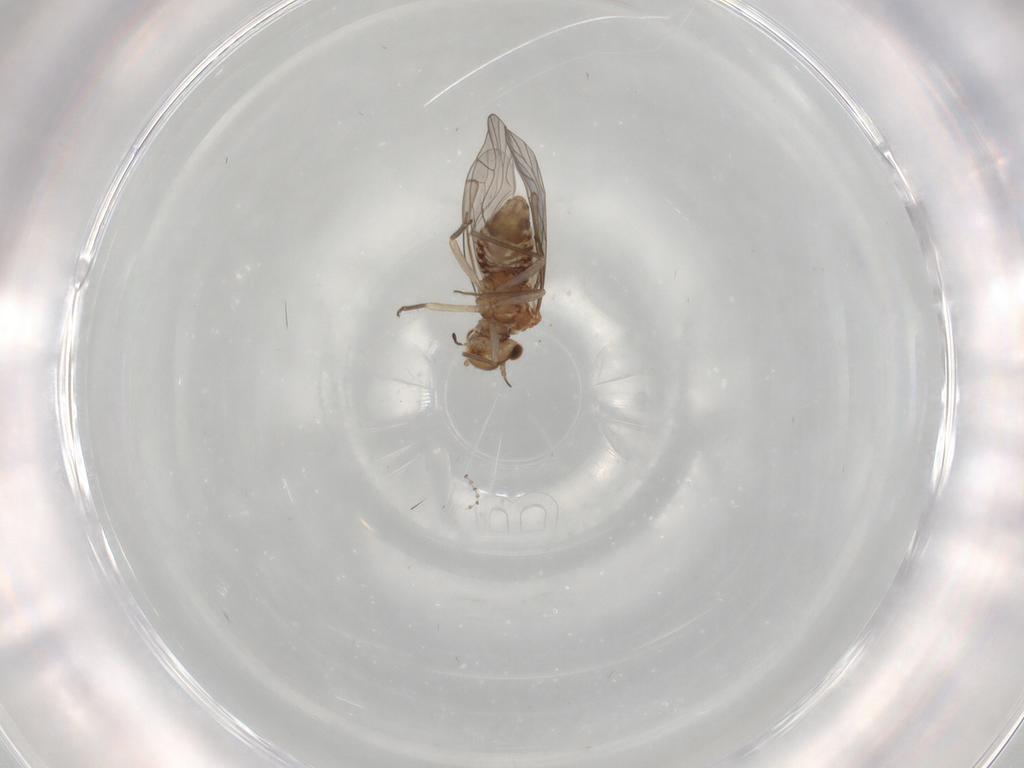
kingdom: Animalia
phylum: Arthropoda
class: Insecta
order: Psocodea
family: Lachesillidae
